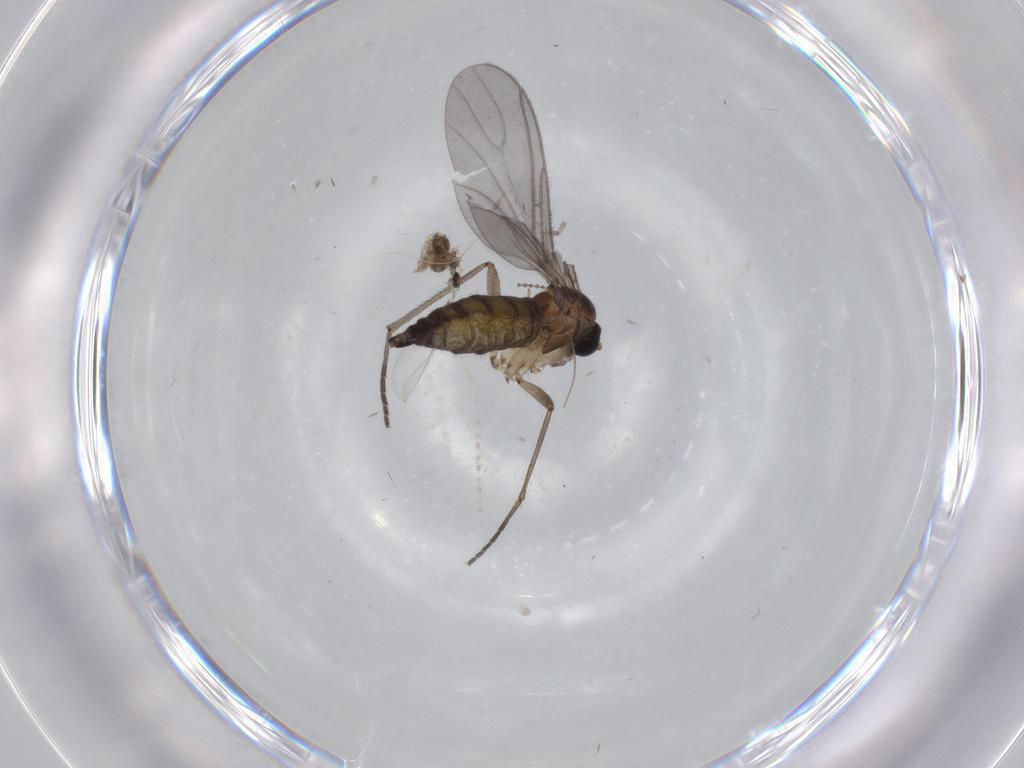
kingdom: Animalia
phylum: Arthropoda
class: Insecta
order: Diptera
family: Sciaridae
